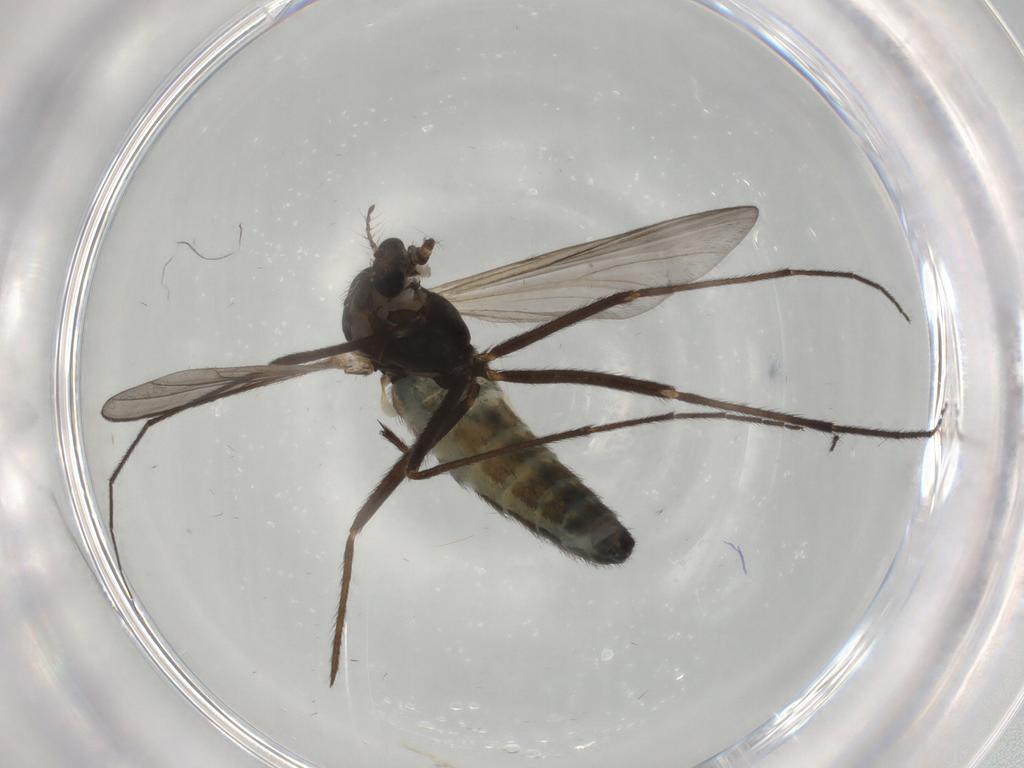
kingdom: Animalia
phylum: Arthropoda
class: Insecta
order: Diptera
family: Chironomidae
